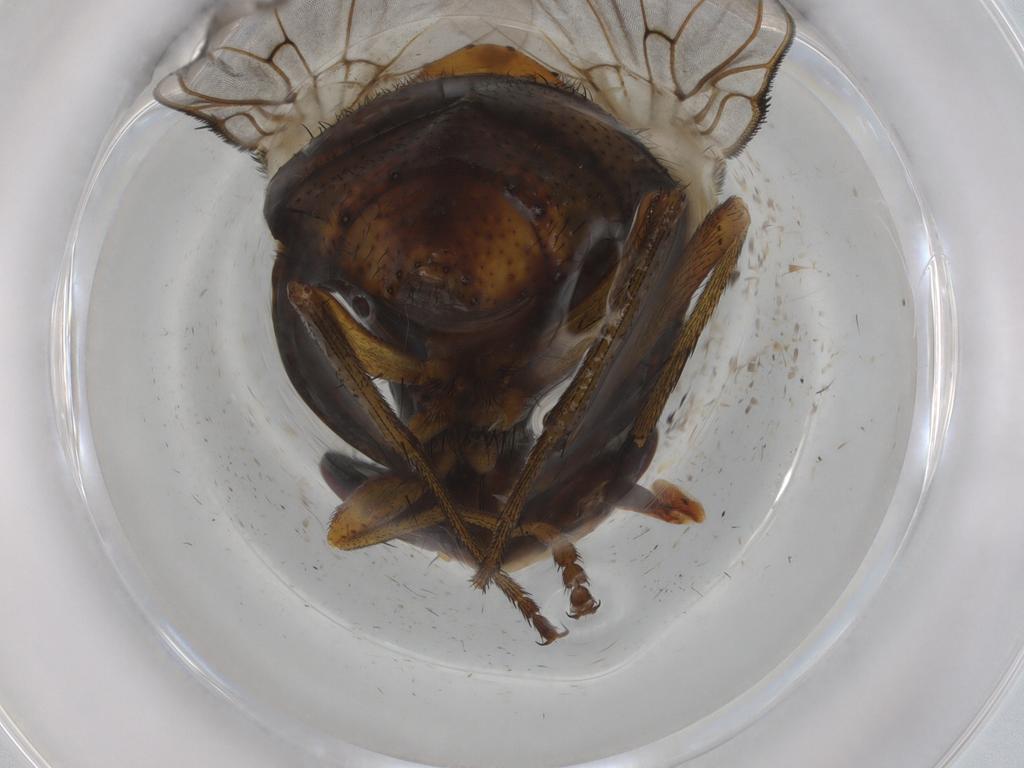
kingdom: Animalia
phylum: Arthropoda
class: Insecta
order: Diptera
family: Tachinidae
